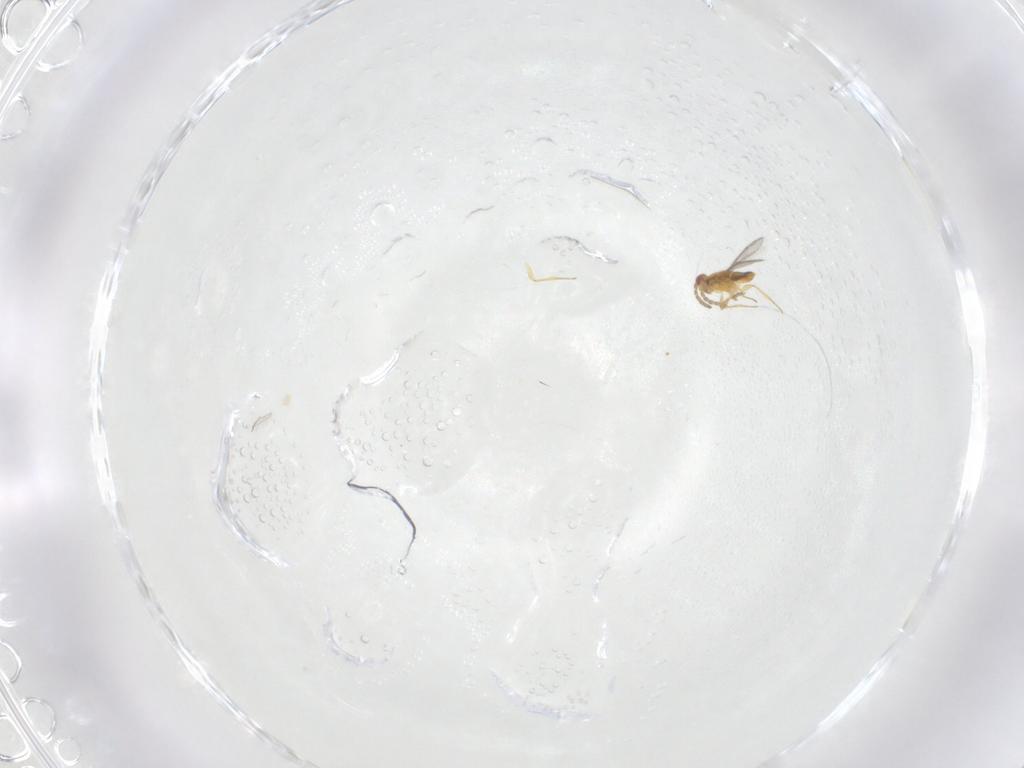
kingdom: Animalia
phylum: Arthropoda
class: Insecta
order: Hymenoptera
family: Aphelinidae
